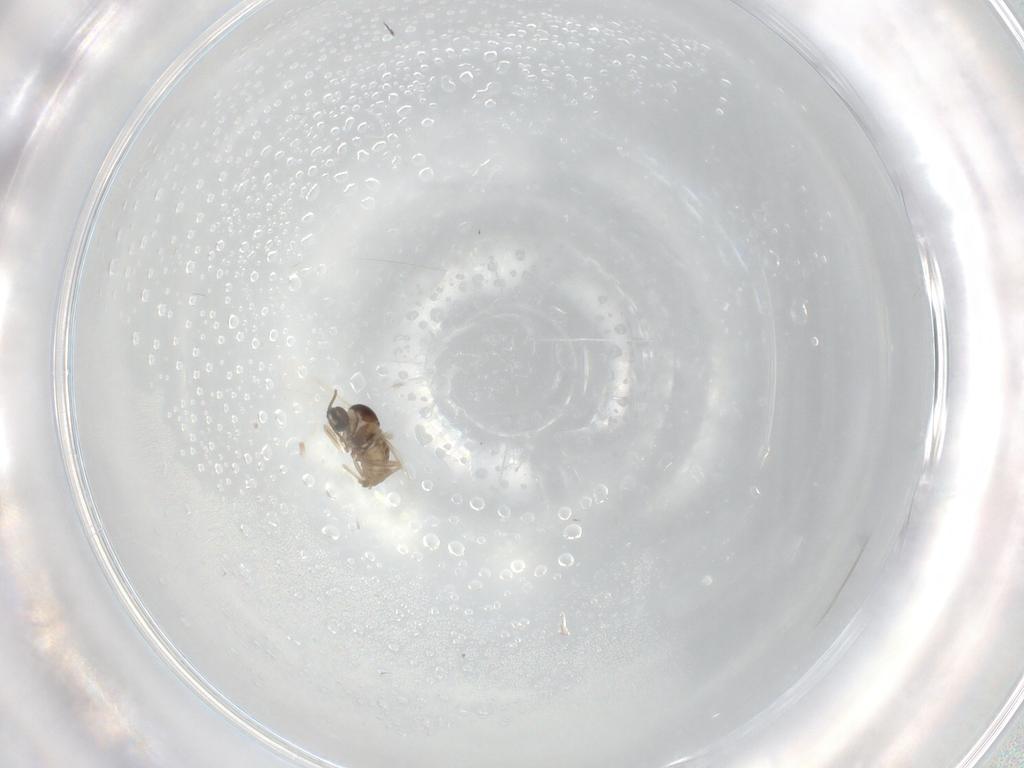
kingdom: Animalia
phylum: Arthropoda
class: Insecta
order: Diptera
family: Cecidomyiidae
